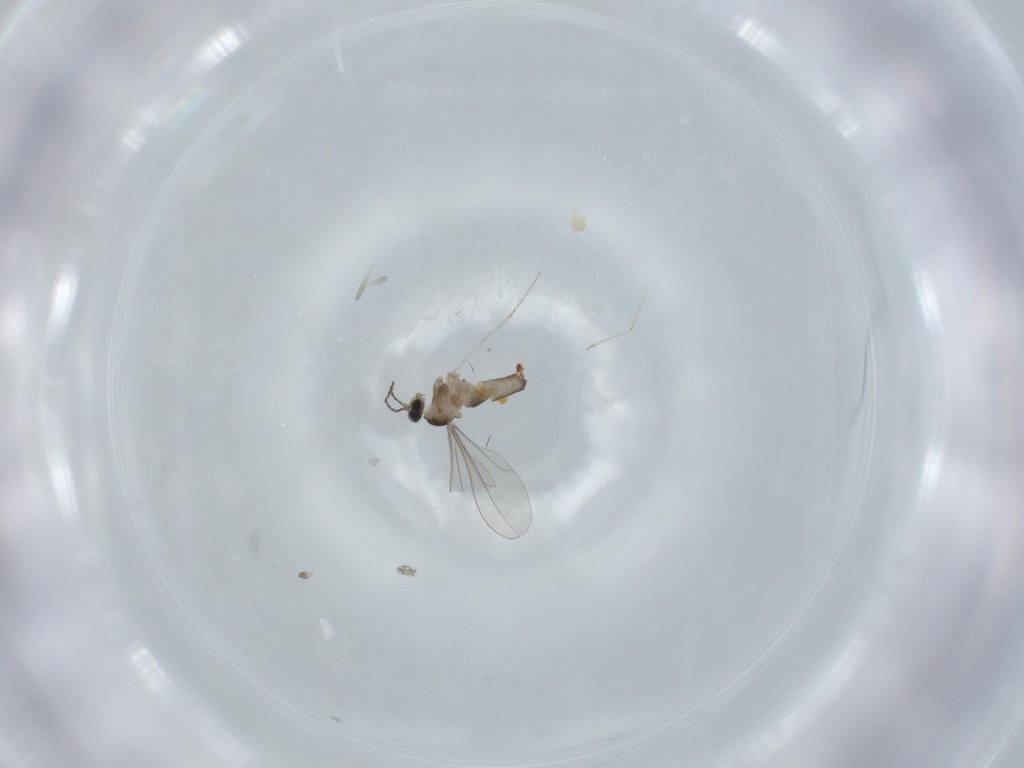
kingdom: Animalia
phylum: Arthropoda
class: Insecta
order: Diptera
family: Cecidomyiidae
